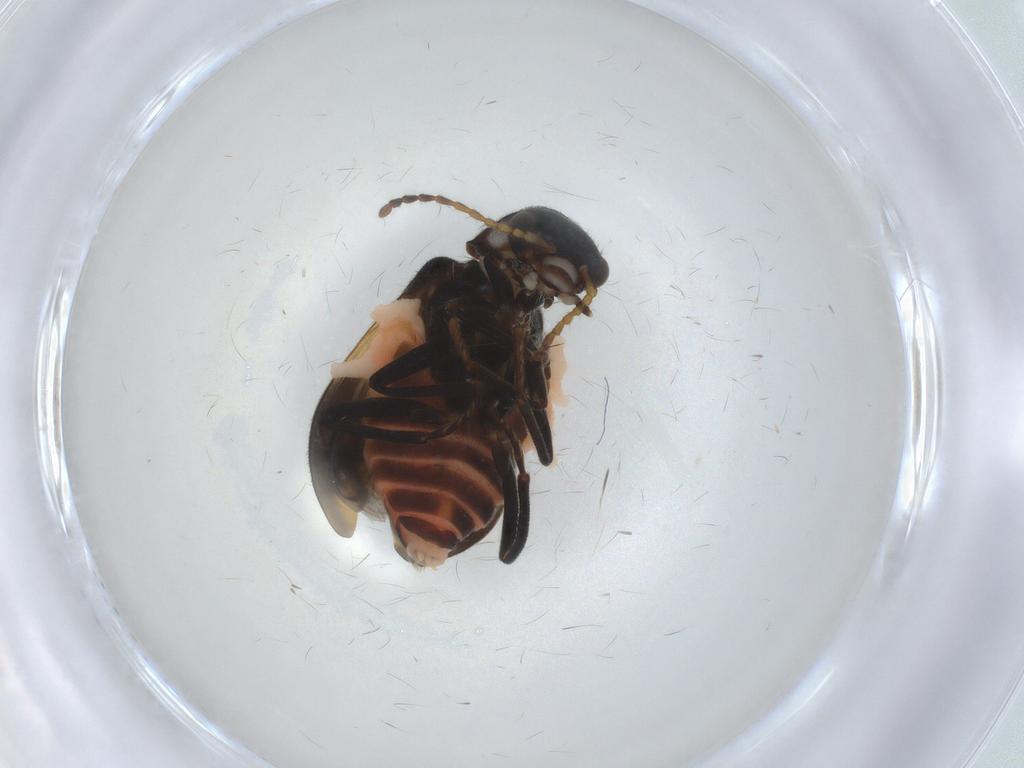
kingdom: Animalia
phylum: Arthropoda
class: Insecta
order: Coleoptera
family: Melyridae
